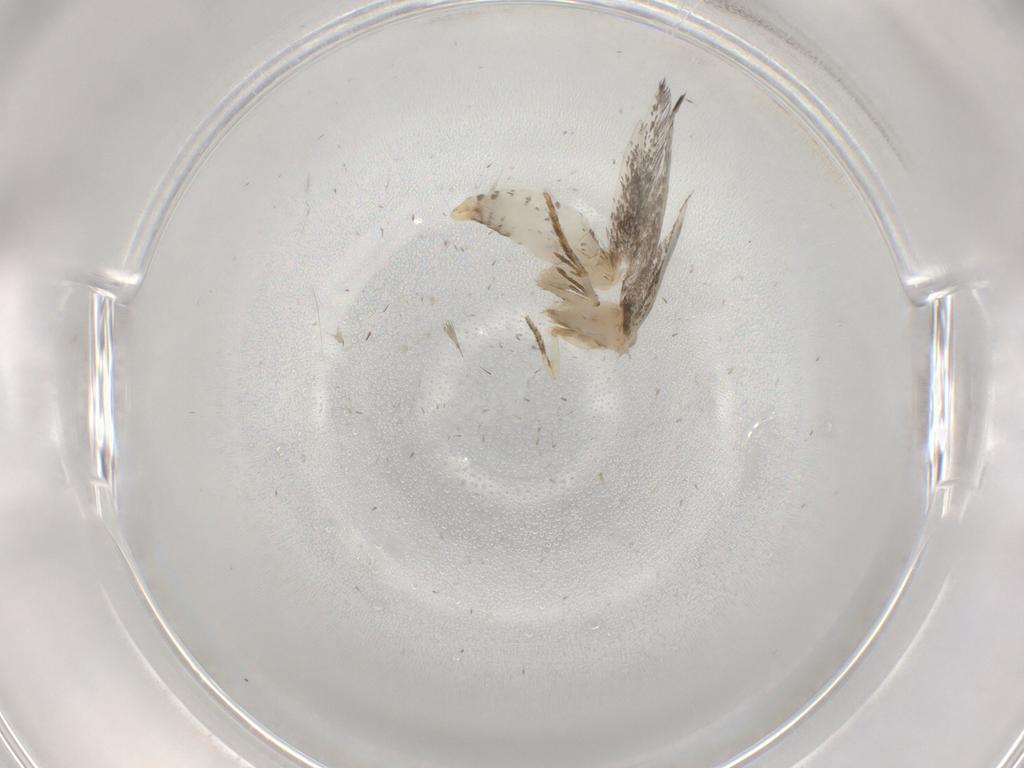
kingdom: Animalia
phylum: Arthropoda
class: Insecta
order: Lepidoptera
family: Tineidae
